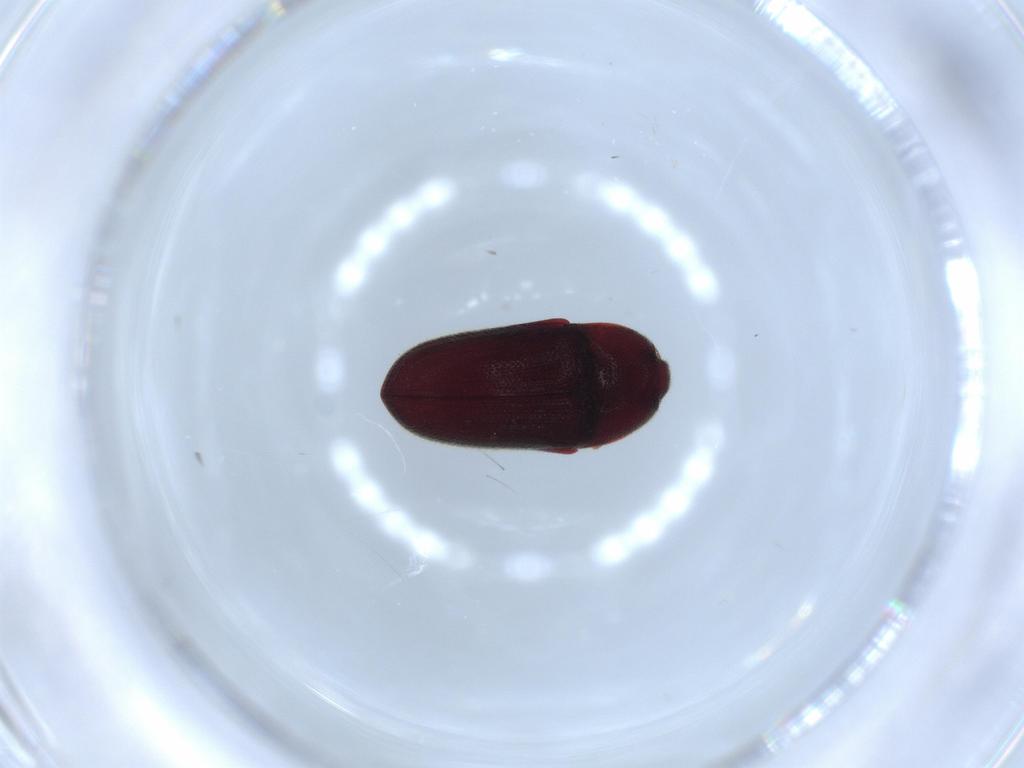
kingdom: Animalia
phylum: Arthropoda
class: Insecta
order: Coleoptera
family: Throscidae
